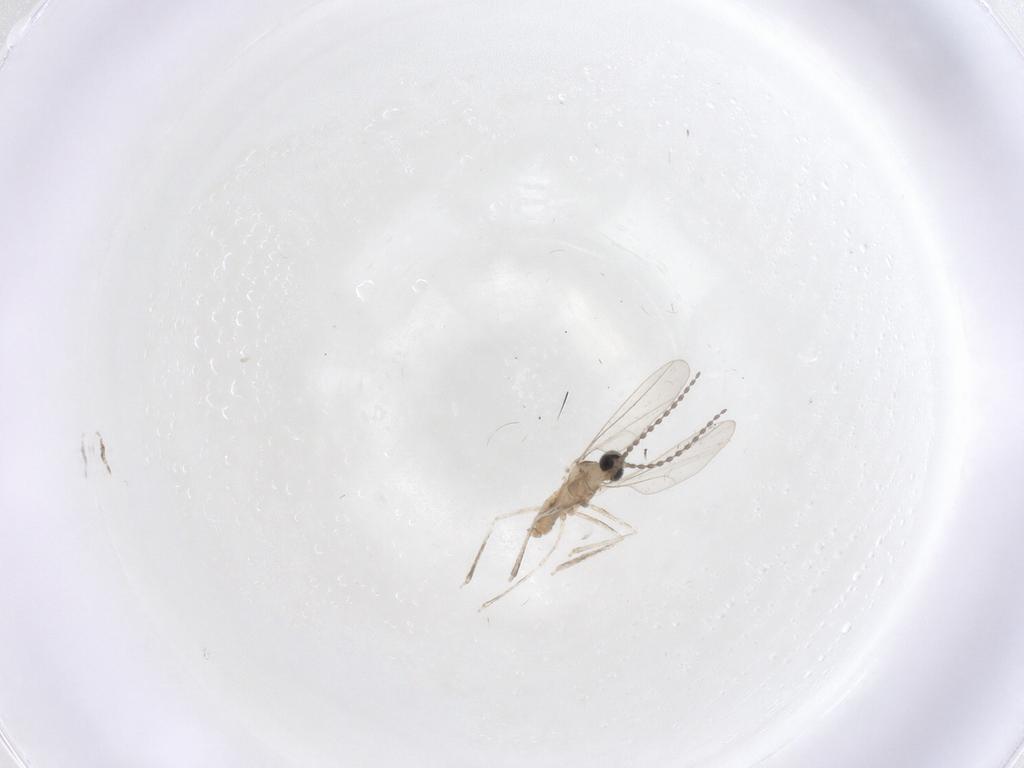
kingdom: Animalia
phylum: Arthropoda
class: Insecta
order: Diptera
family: Cecidomyiidae
